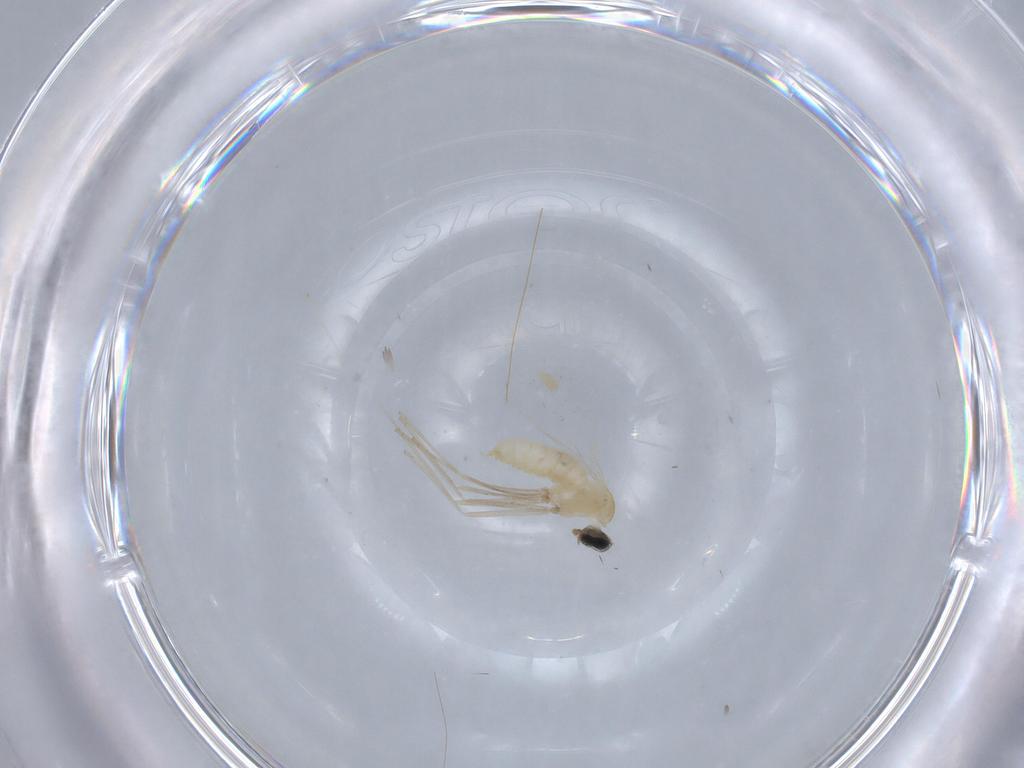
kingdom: Animalia
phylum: Arthropoda
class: Insecta
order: Diptera
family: Cecidomyiidae
